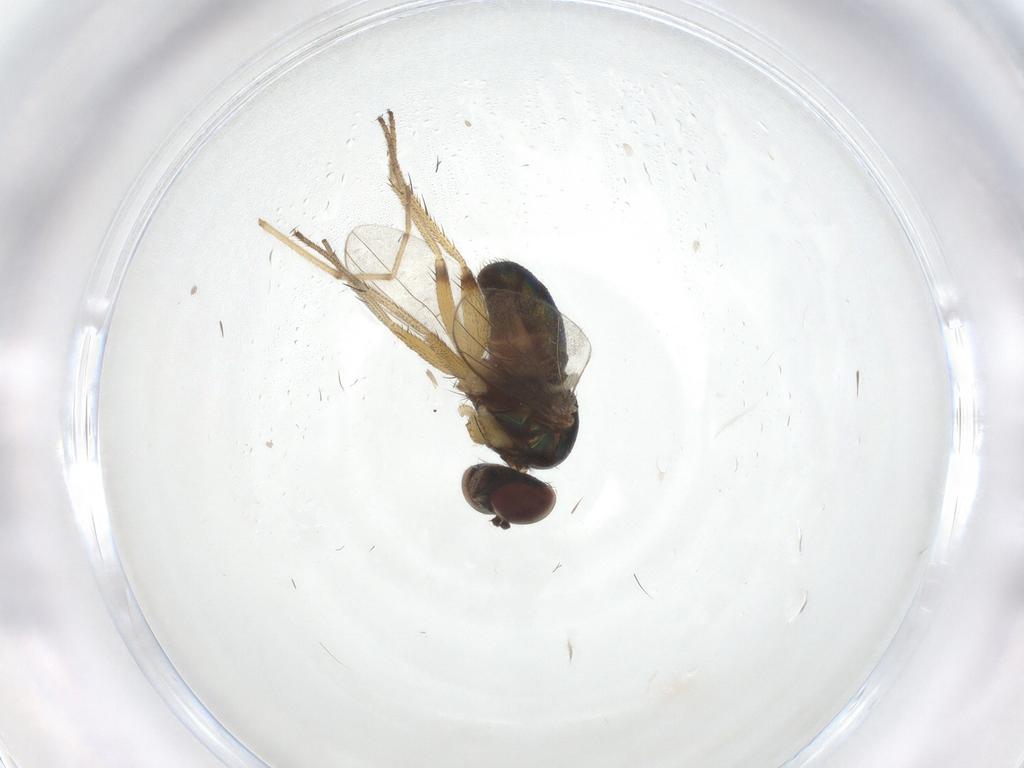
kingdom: Animalia
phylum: Arthropoda
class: Insecta
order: Diptera
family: Dolichopodidae
